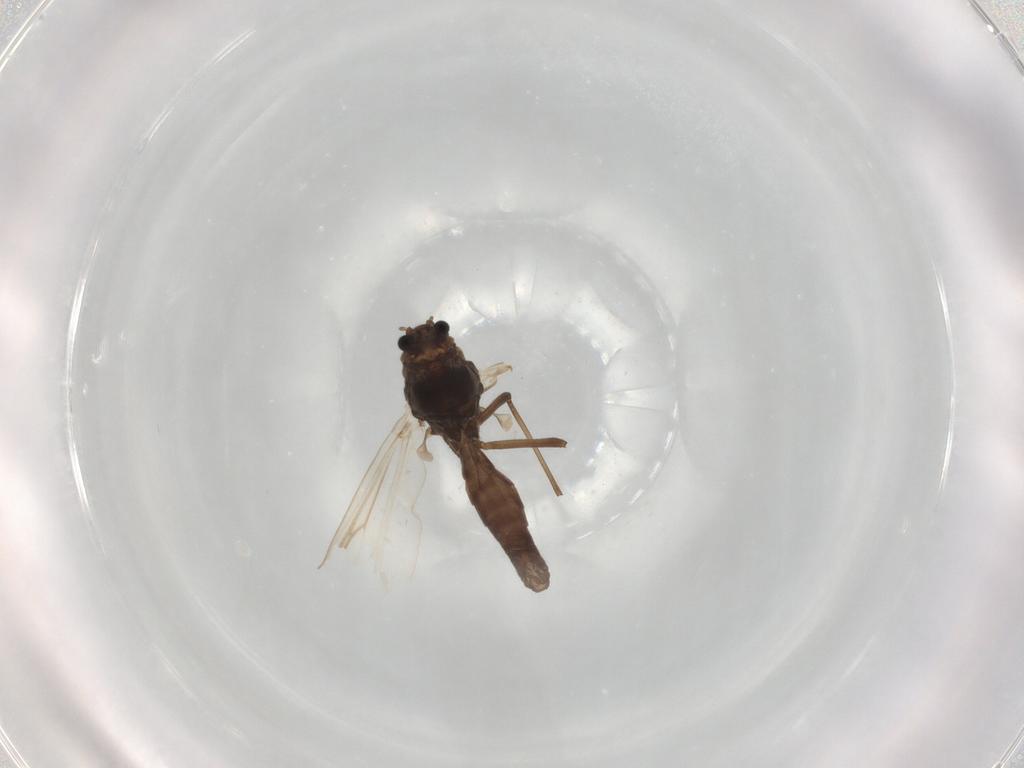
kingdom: Animalia
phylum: Arthropoda
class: Insecta
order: Diptera
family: Chironomidae
